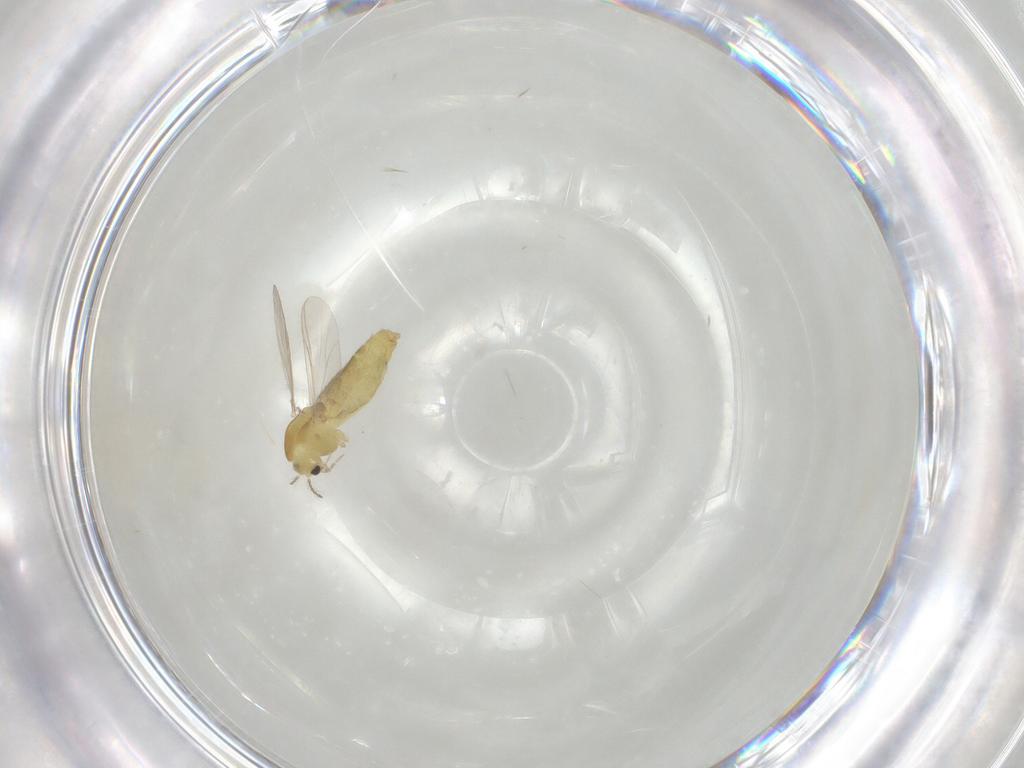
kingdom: Animalia
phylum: Arthropoda
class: Insecta
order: Diptera
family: Chironomidae
